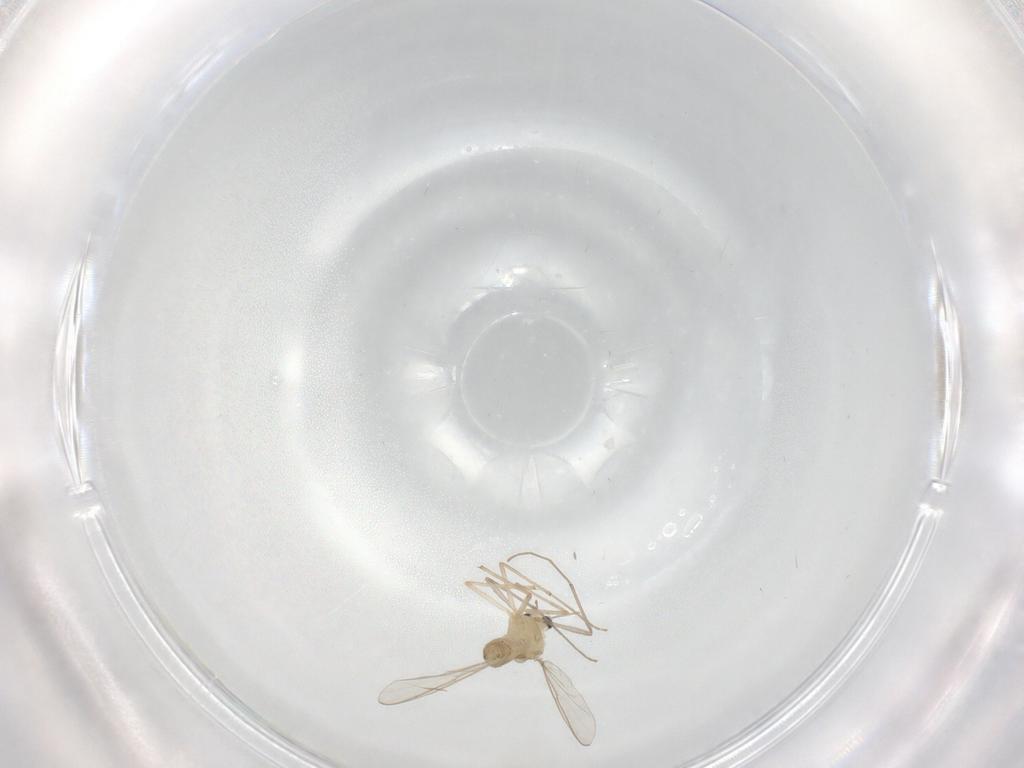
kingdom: Animalia
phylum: Arthropoda
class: Insecta
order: Diptera
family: Chironomidae
